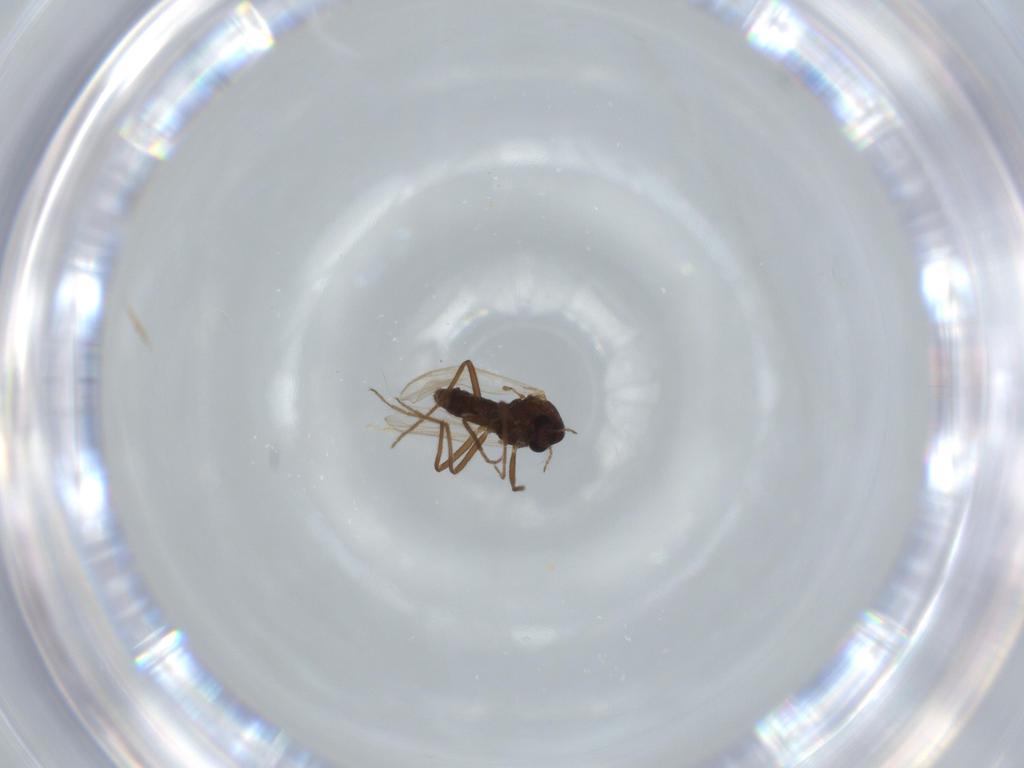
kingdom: Animalia
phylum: Arthropoda
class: Insecta
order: Diptera
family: Chironomidae
